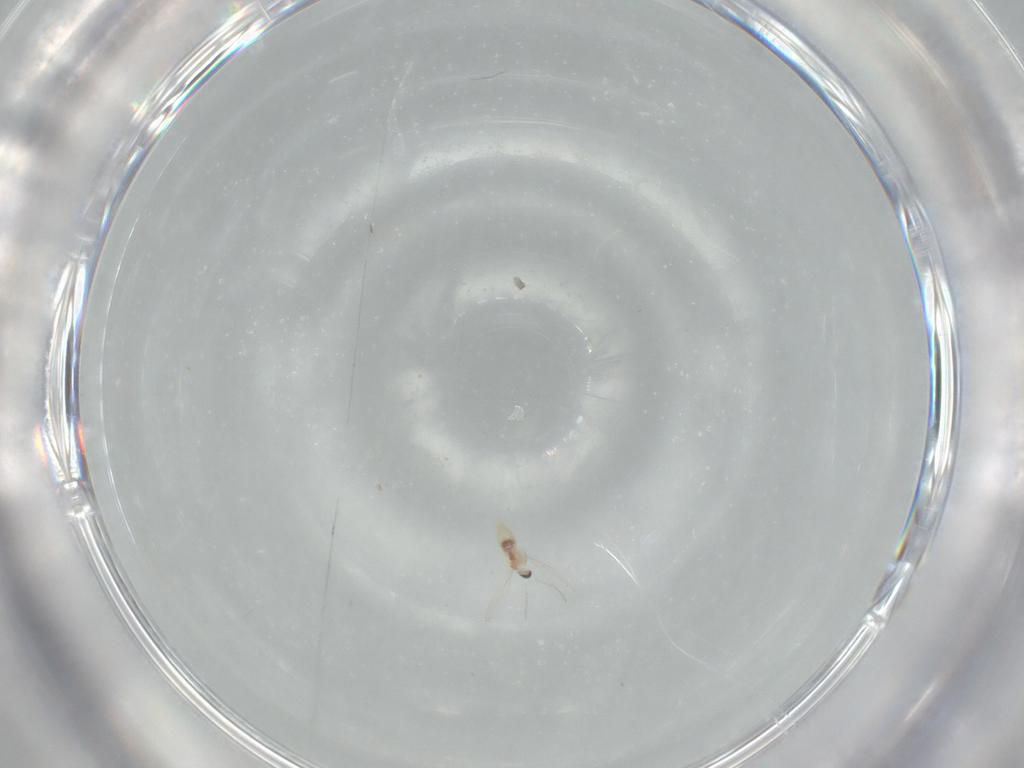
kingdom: Animalia
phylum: Arthropoda
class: Insecta
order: Diptera
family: Cecidomyiidae
